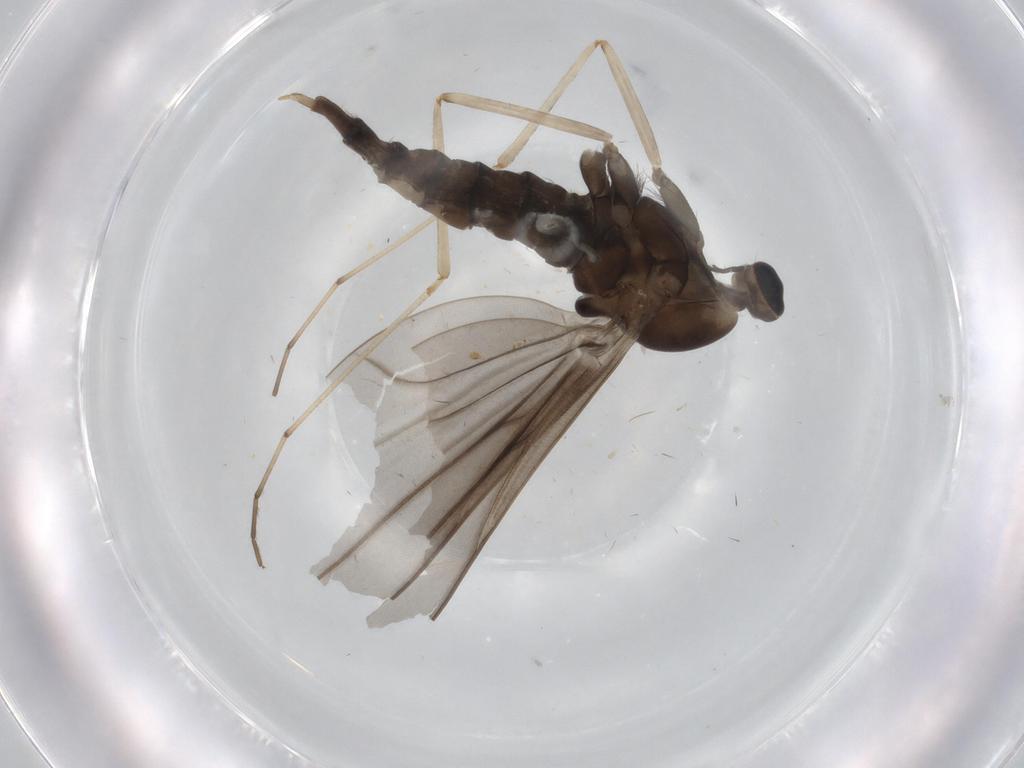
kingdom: Animalia
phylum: Arthropoda
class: Insecta
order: Diptera
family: Cecidomyiidae
